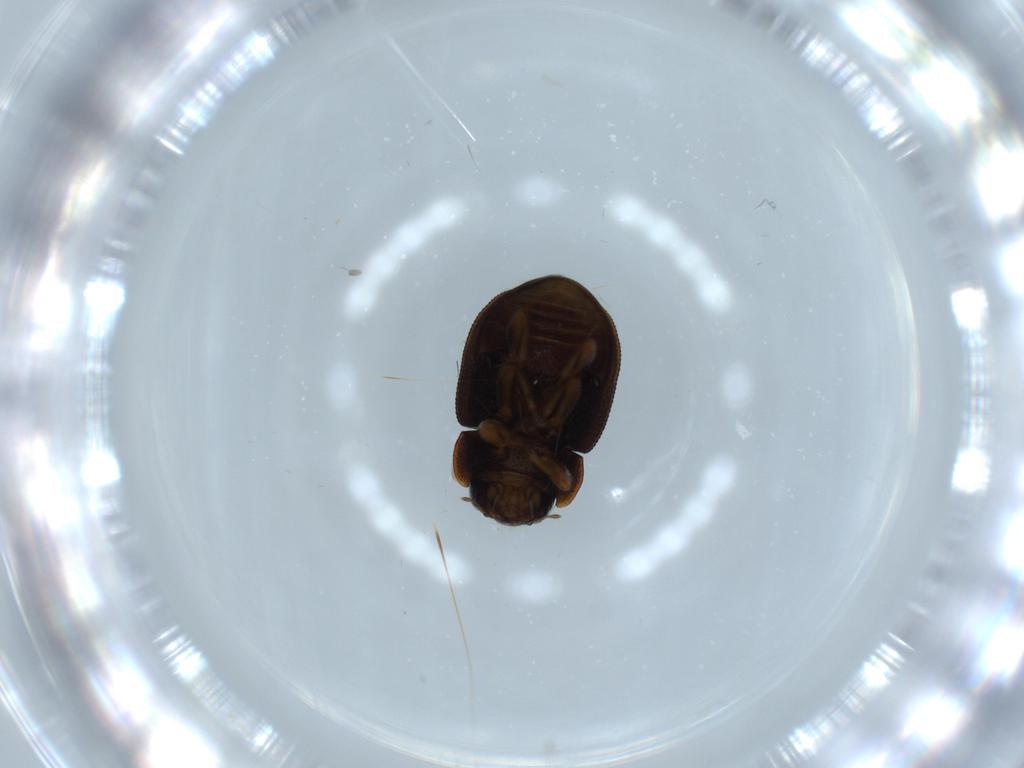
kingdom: Animalia
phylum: Arthropoda
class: Insecta
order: Coleoptera
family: Coccinellidae
